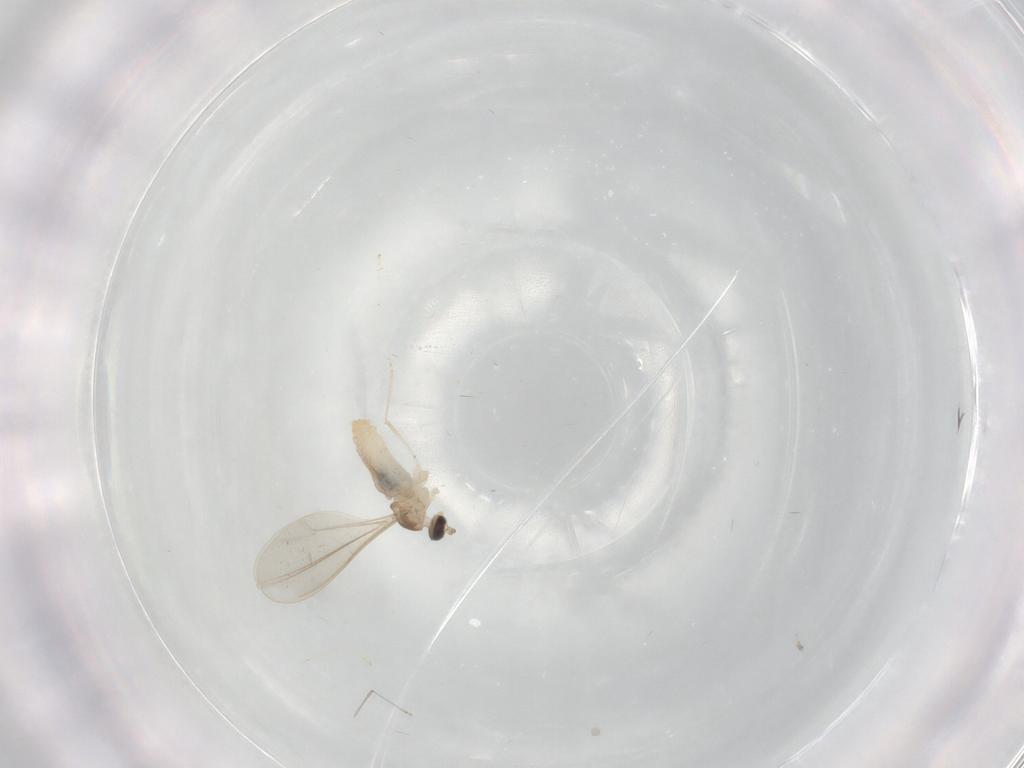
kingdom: Animalia
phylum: Arthropoda
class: Insecta
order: Diptera
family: Cecidomyiidae
